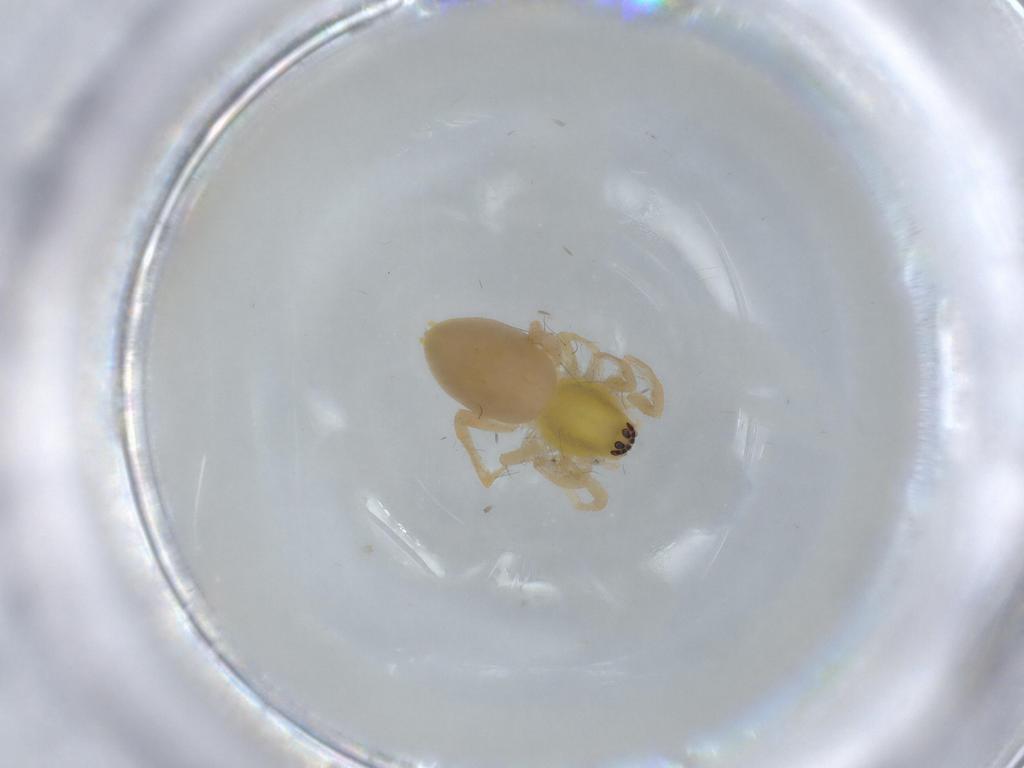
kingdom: Animalia
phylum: Arthropoda
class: Arachnida
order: Araneae
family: Anyphaenidae
